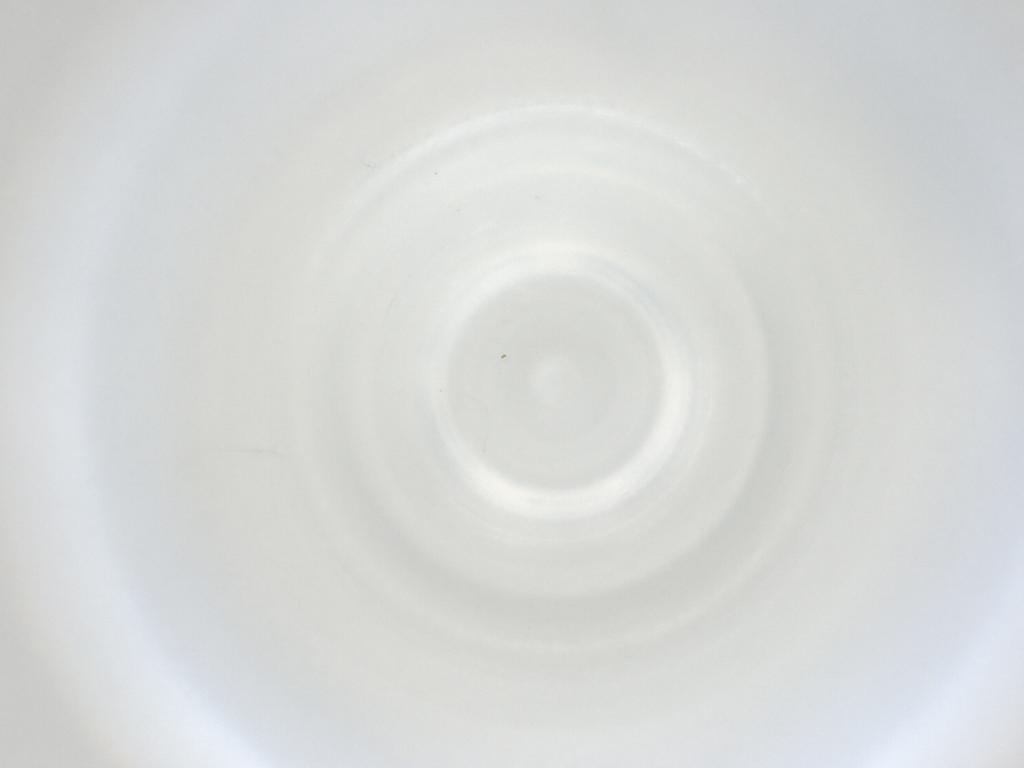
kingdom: Animalia
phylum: Arthropoda
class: Insecta
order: Diptera
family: Cecidomyiidae
